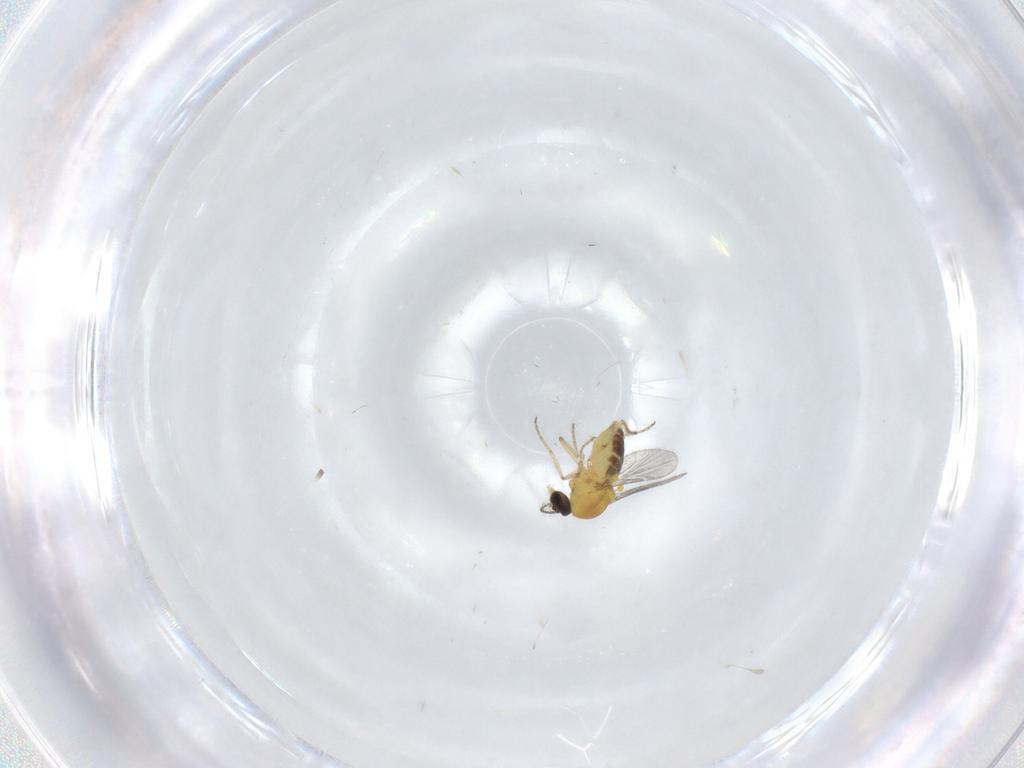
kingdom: Animalia
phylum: Arthropoda
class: Insecta
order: Diptera
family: Ceratopogonidae
